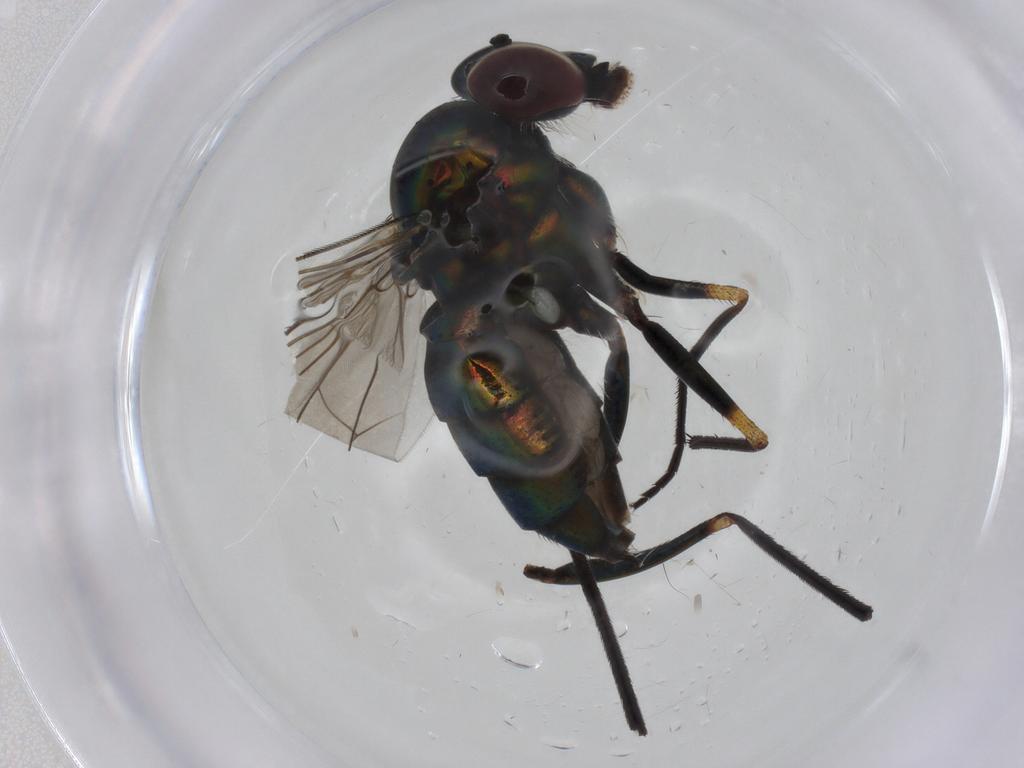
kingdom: Animalia
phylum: Arthropoda
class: Insecta
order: Diptera
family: Dolichopodidae
